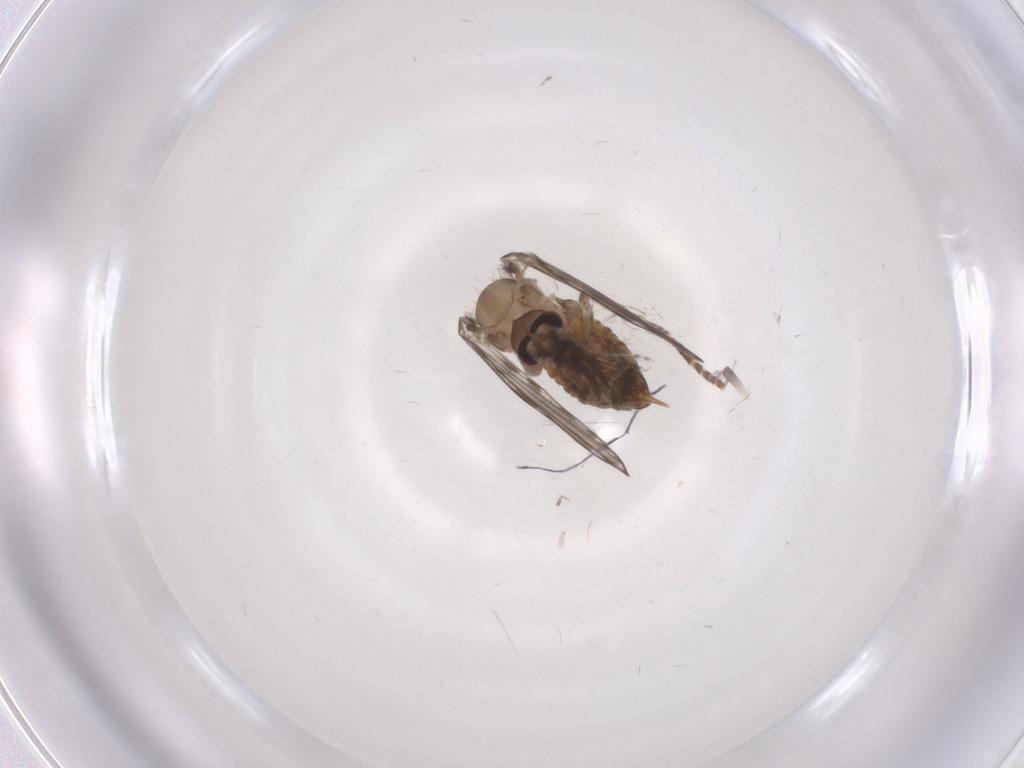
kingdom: Animalia
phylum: Arthropoda
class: Insecta
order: Diptera
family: Psychodidae
